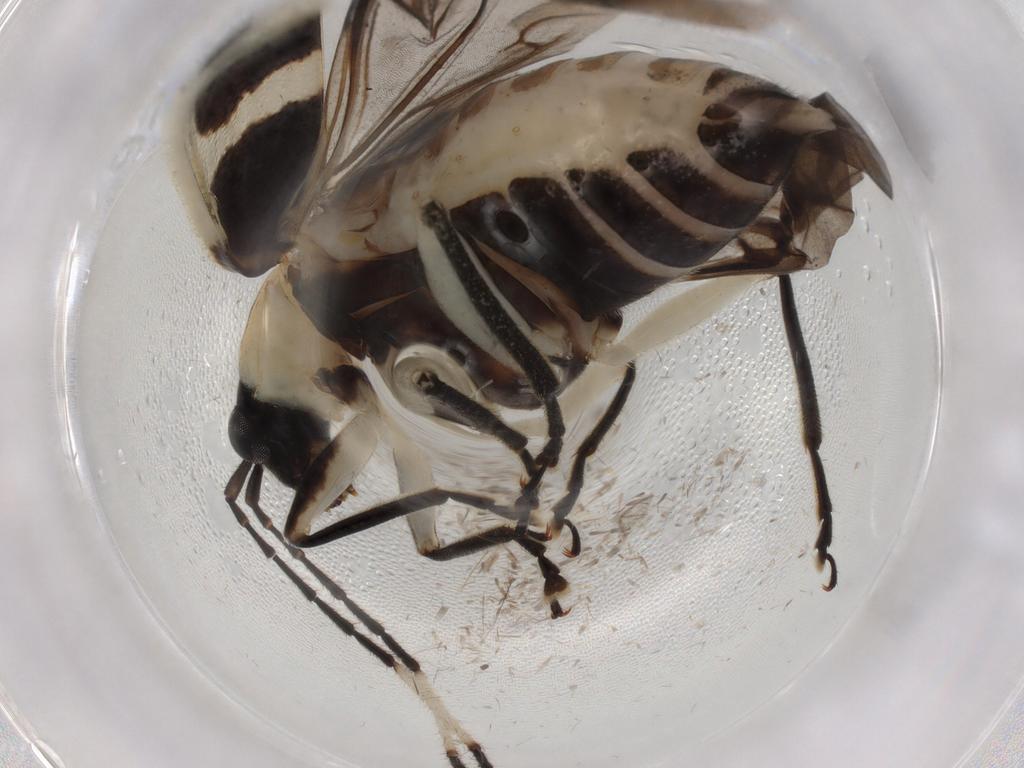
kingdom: Animalia
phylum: Arthropoda
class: Insecta
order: Coleoptera
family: Chrysomelidae
